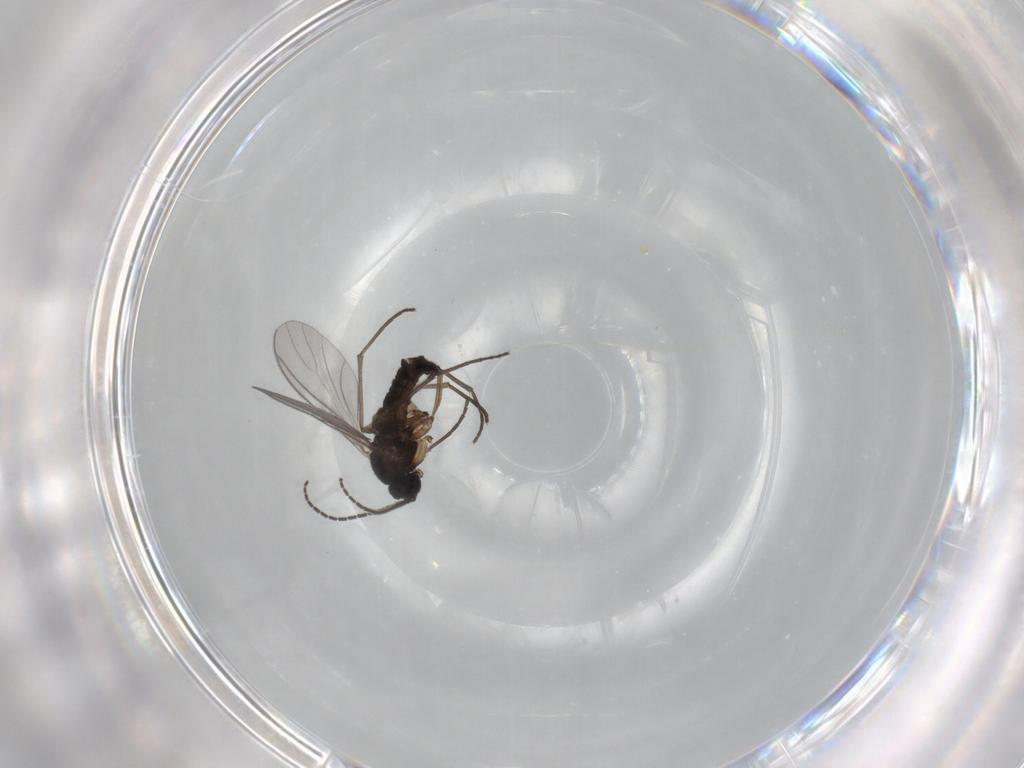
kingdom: Animalia
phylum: Arthropoda
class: Insecta
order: Diptera
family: Sciaridae
